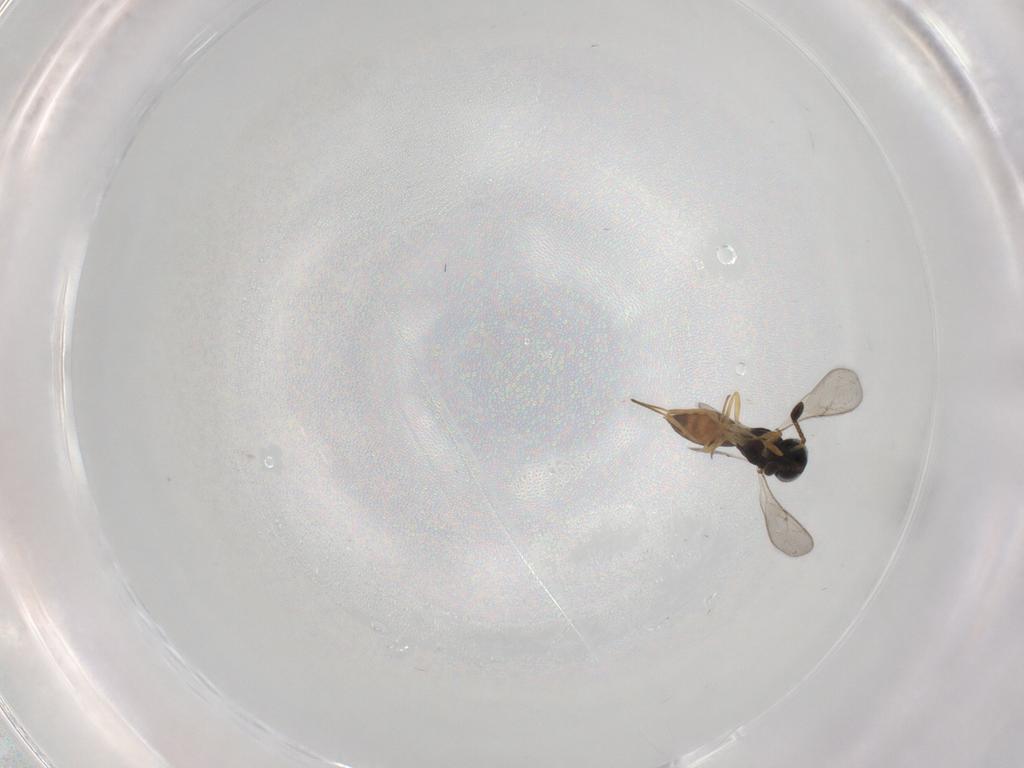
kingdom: Animalia
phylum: Arthropoda
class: Insecta
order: Hymenoptera
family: Scelionidae
